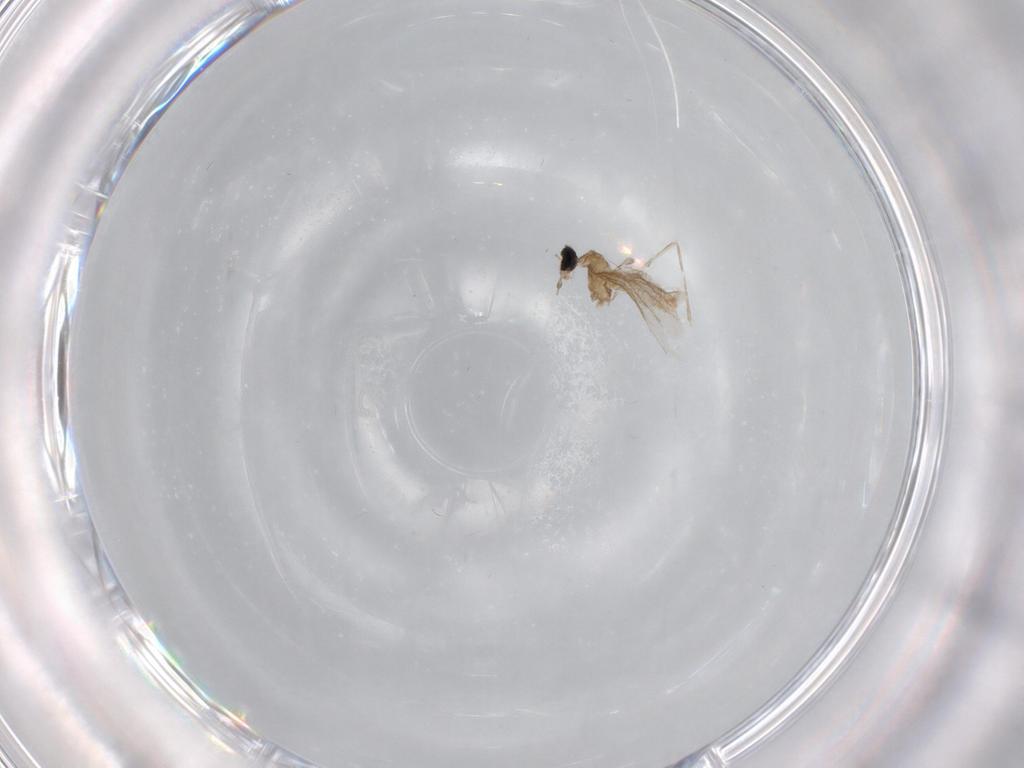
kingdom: Animalia
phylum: Arthropoda
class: Insecta
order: Diptera
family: Cecidomyiidae
